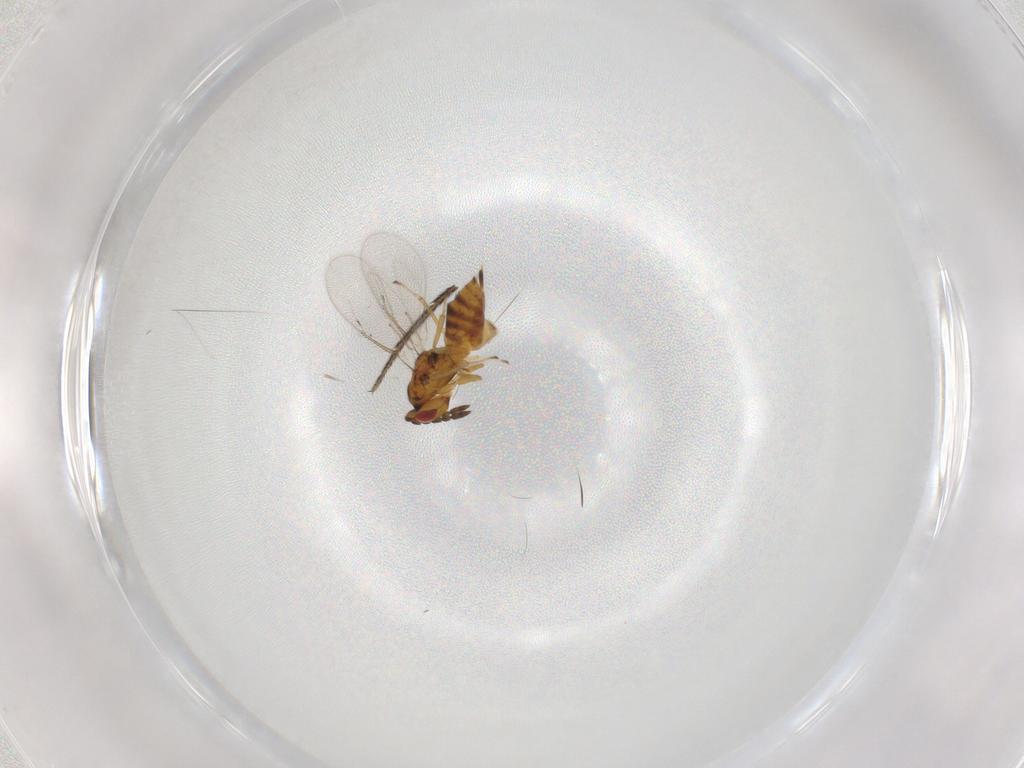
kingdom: Animalia
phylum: Arthropoda
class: Insecta
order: Hymenoptera
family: Eulophidae
